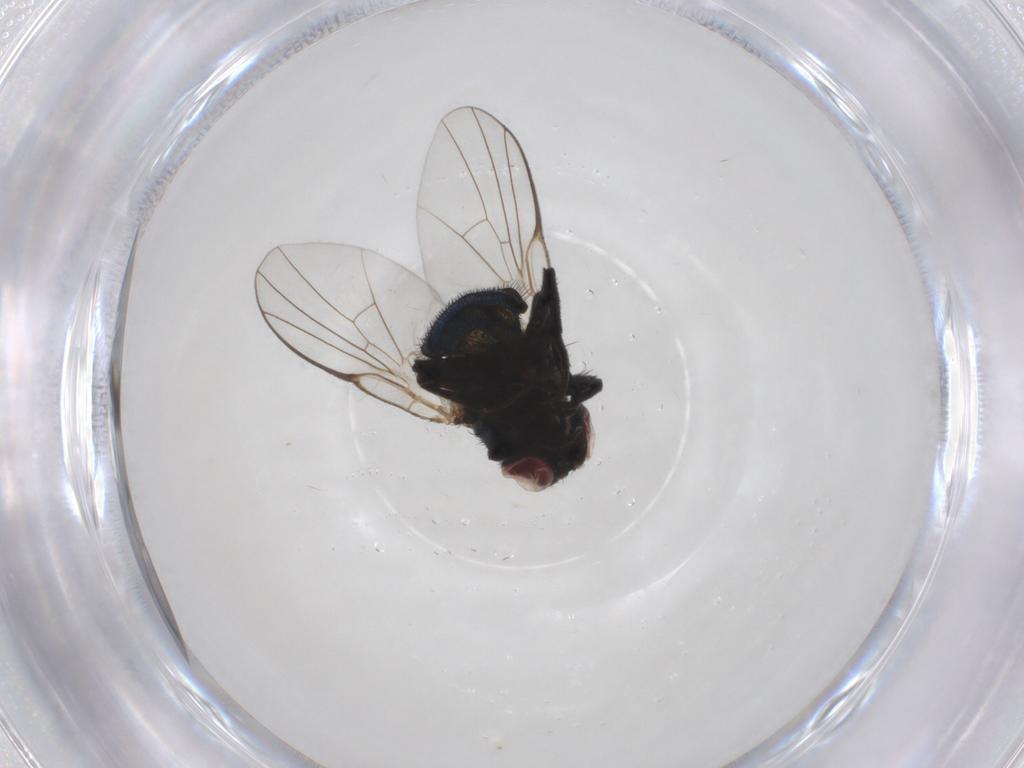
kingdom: Animalia
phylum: Arthropoda
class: Insecta
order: Diptera
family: Agromyzidae
